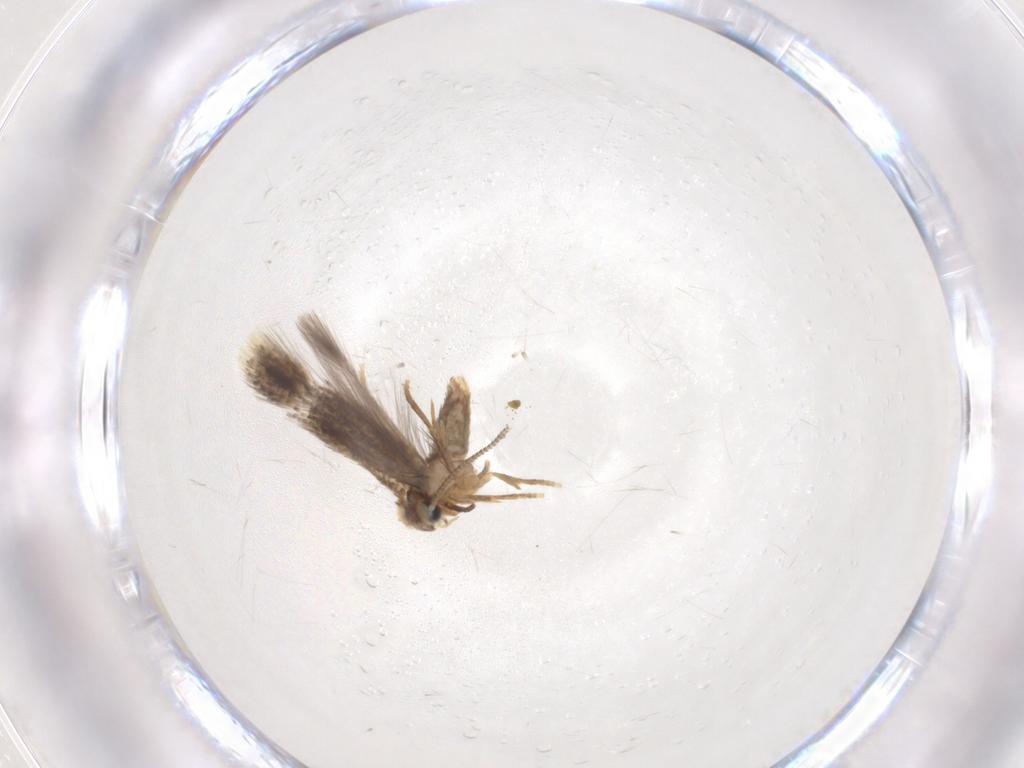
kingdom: Animalia
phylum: Arthropoda
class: Insecta
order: Lepidoptera
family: Nepticulidae
